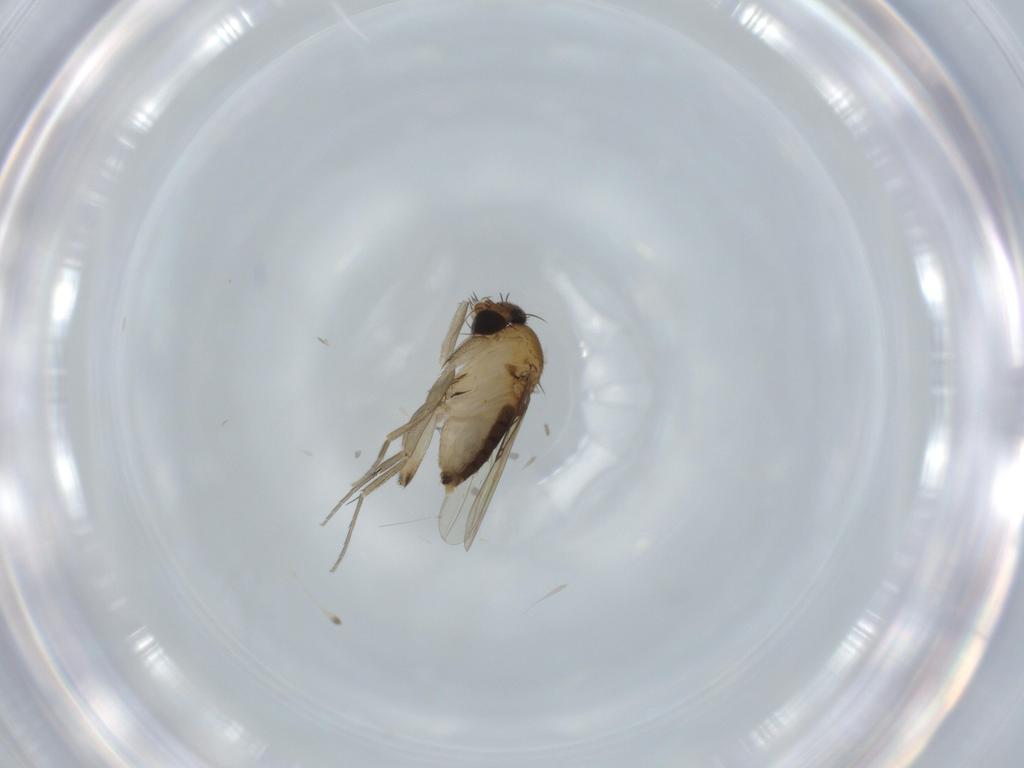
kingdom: Animalia
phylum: Arthropoda
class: Insecta
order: Diptera
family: Phoridae
